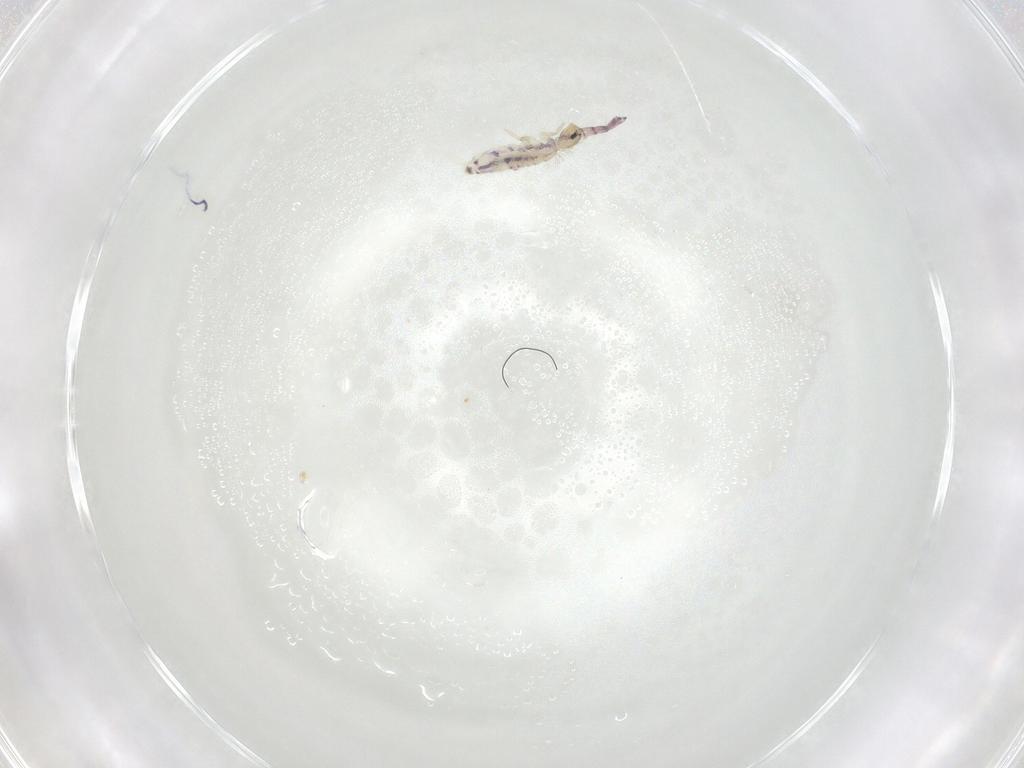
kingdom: Animalia
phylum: Arthropoda
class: Collembola
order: Entomobryomorpha
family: Entomobryidae
